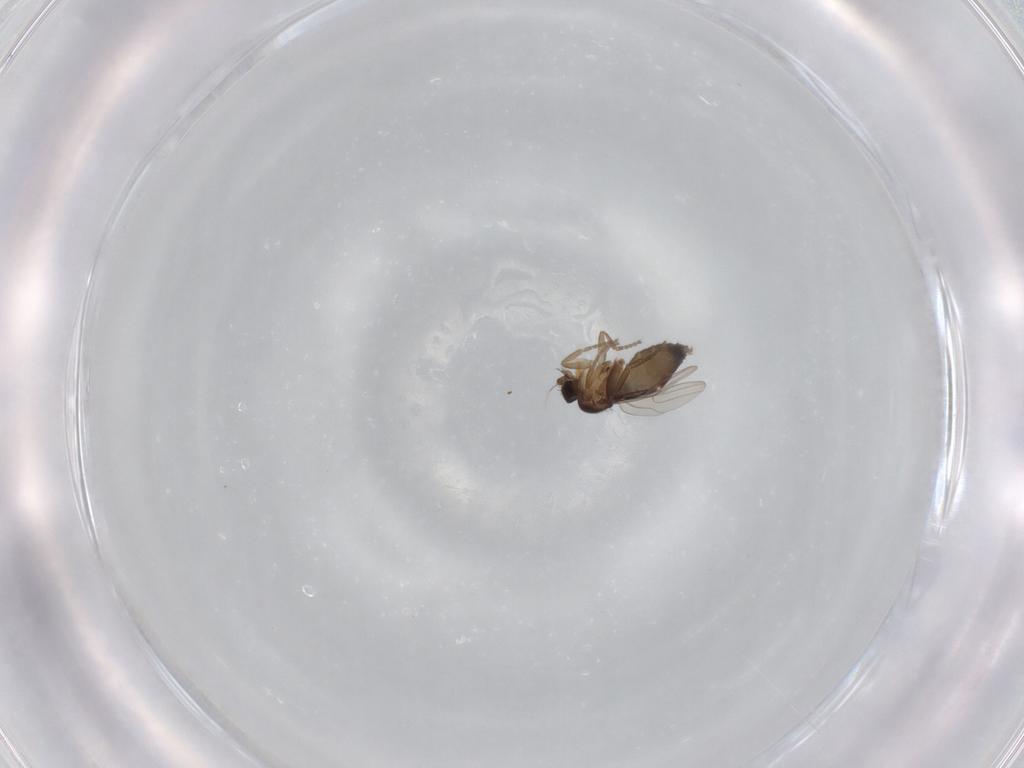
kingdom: Animalia
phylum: Arthropoda
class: Insecta
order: Diptera
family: Phoridae
